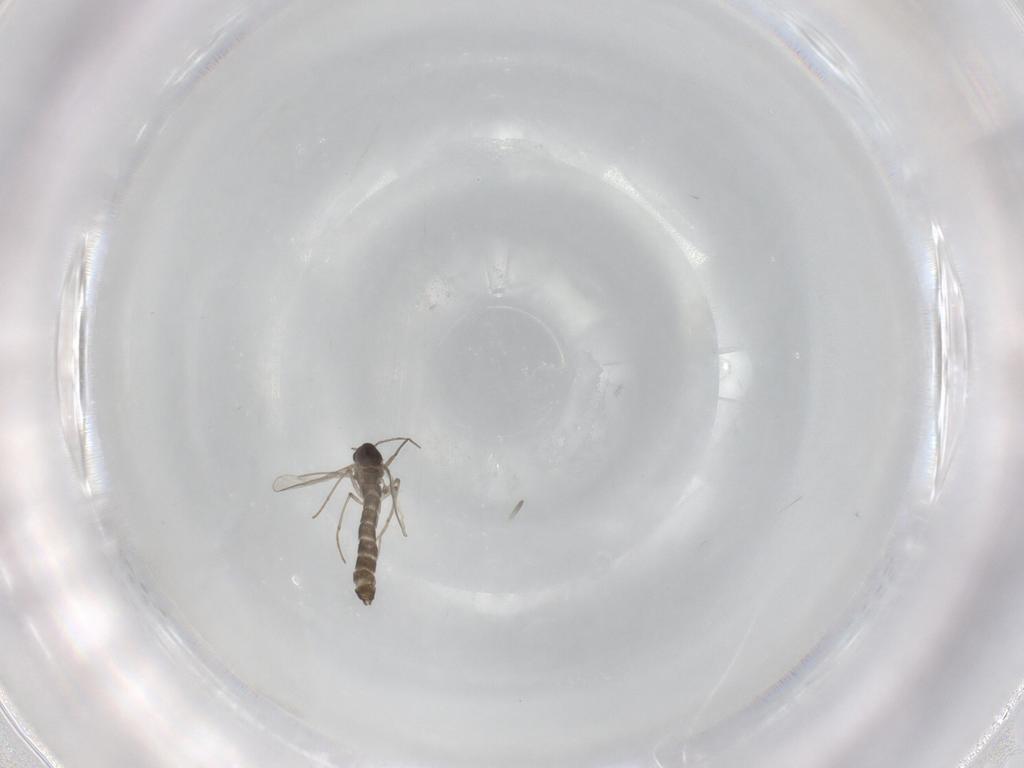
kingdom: Animalia
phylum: Arthropoda
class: Insecta
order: Diptera
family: Chironomidae
